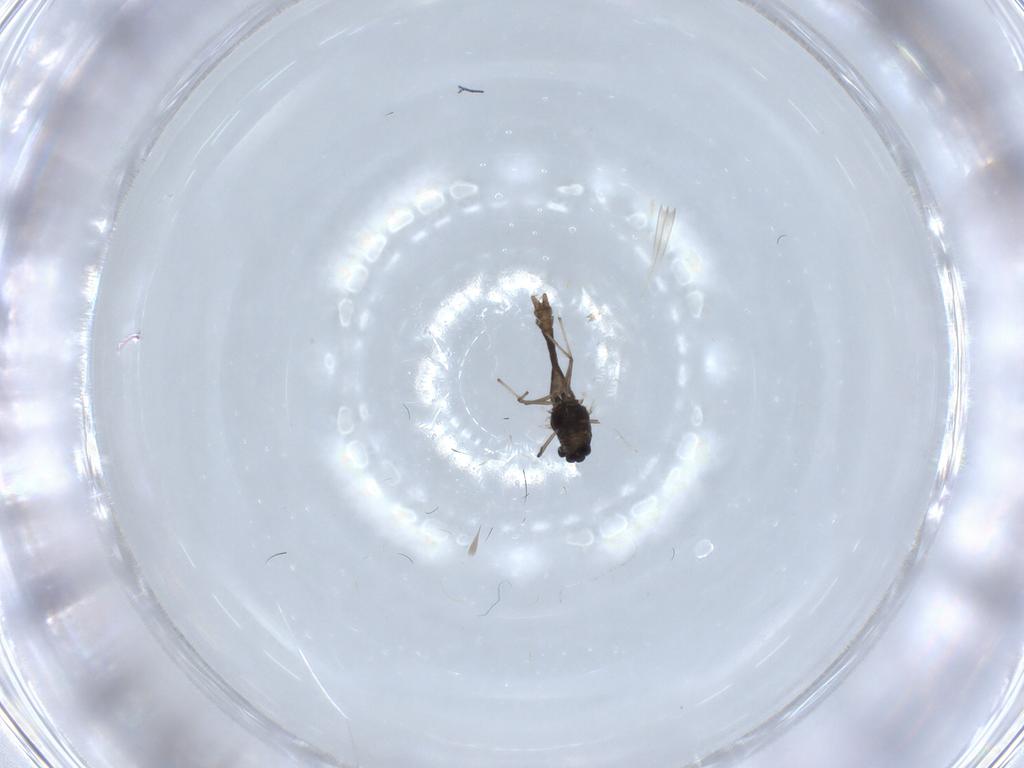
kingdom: Animalia
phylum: Arthropoda
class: Insecta
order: Diptera
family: Chironomidae
